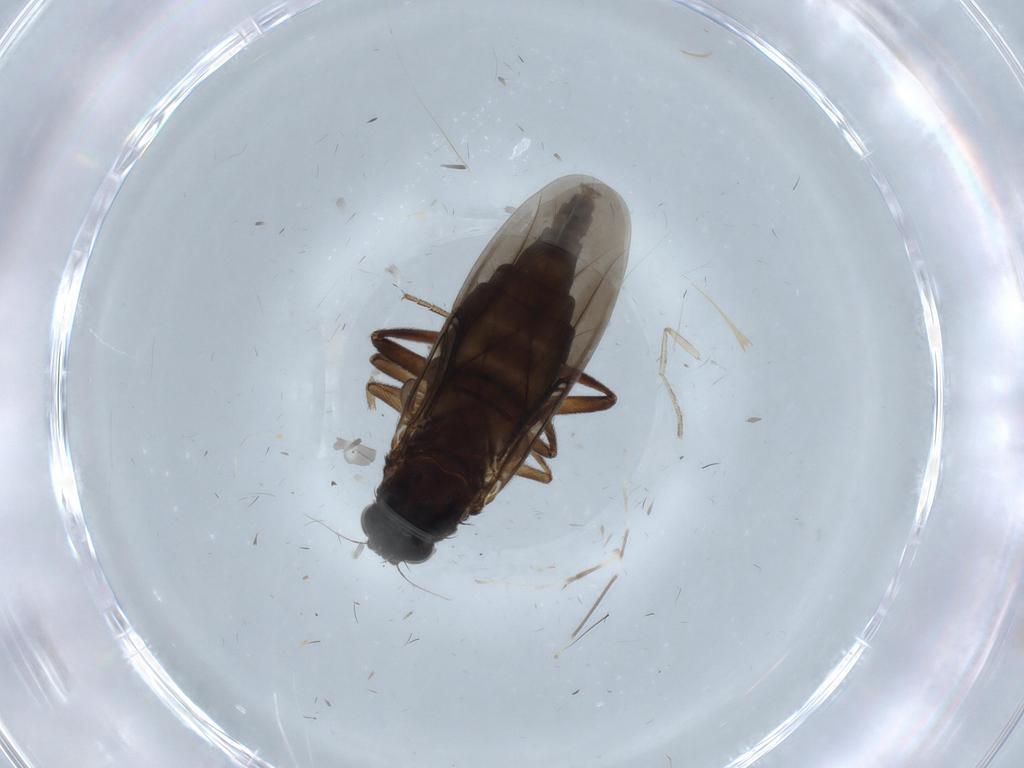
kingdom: Animalia
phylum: Arthropoda
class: Insecta
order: Diptera
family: Phoridae
